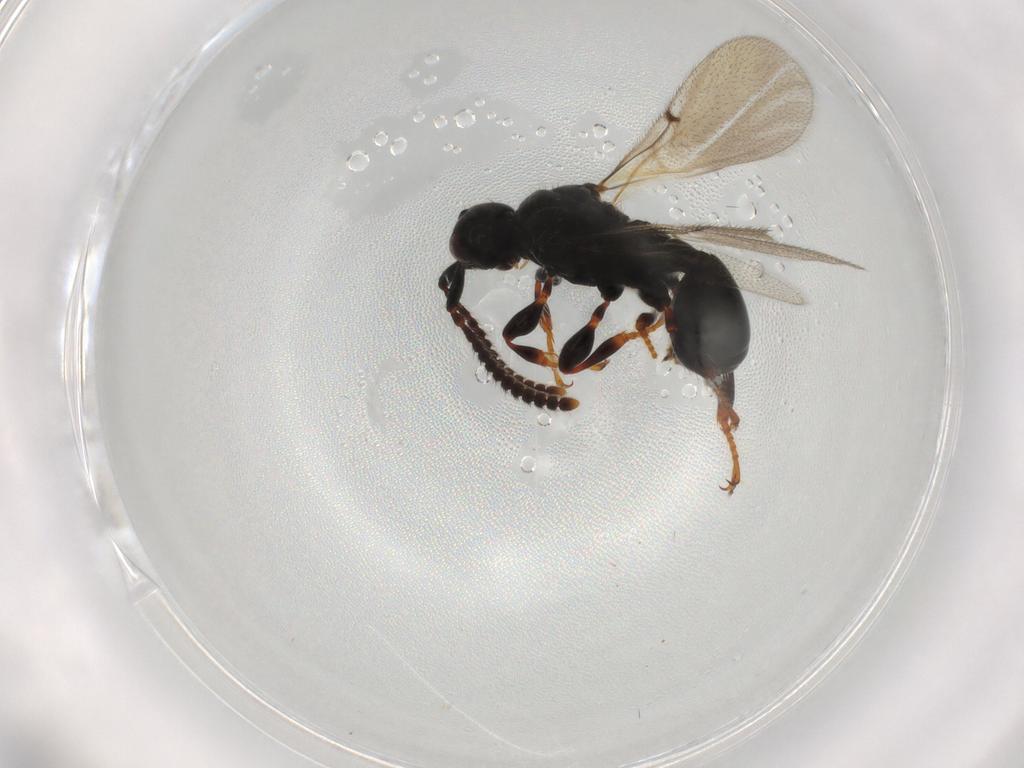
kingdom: Animalia
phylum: Arthropoda
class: Insecta
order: Hymenoptera
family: Diapriidae
